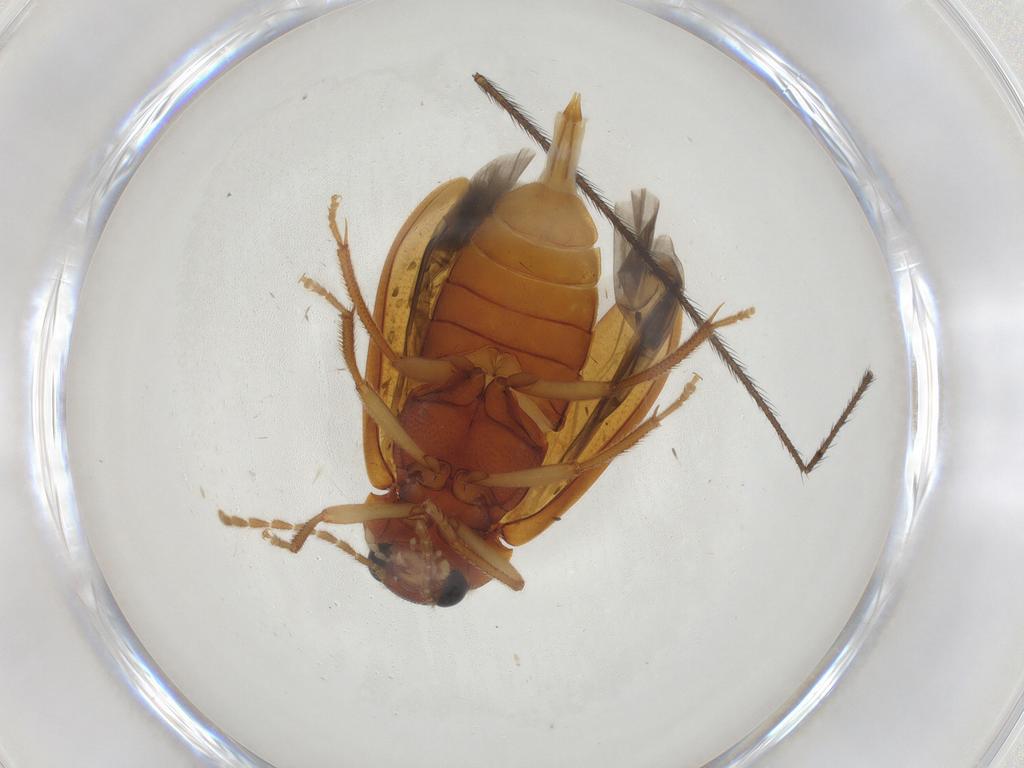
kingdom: Animalia
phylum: Arthropoda
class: Insecta
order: Coleoptera
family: Ptilodactylidae
